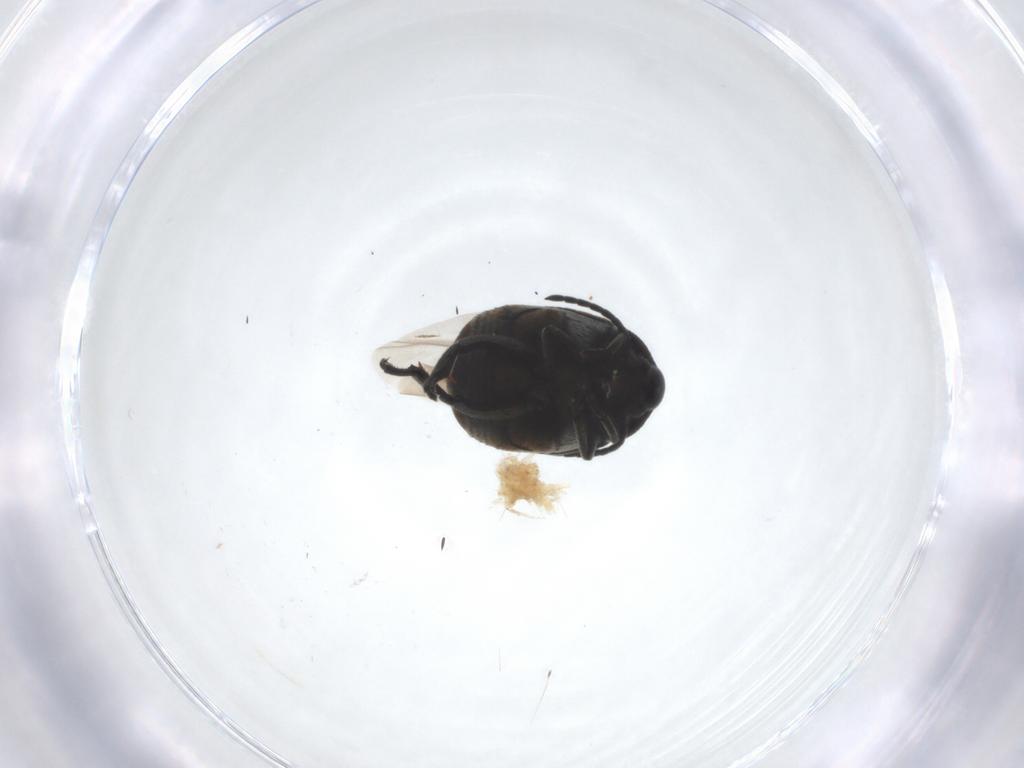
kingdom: Animalia
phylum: Arthropoda
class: Insecta
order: Coleoptera
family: Chrysomelidae
